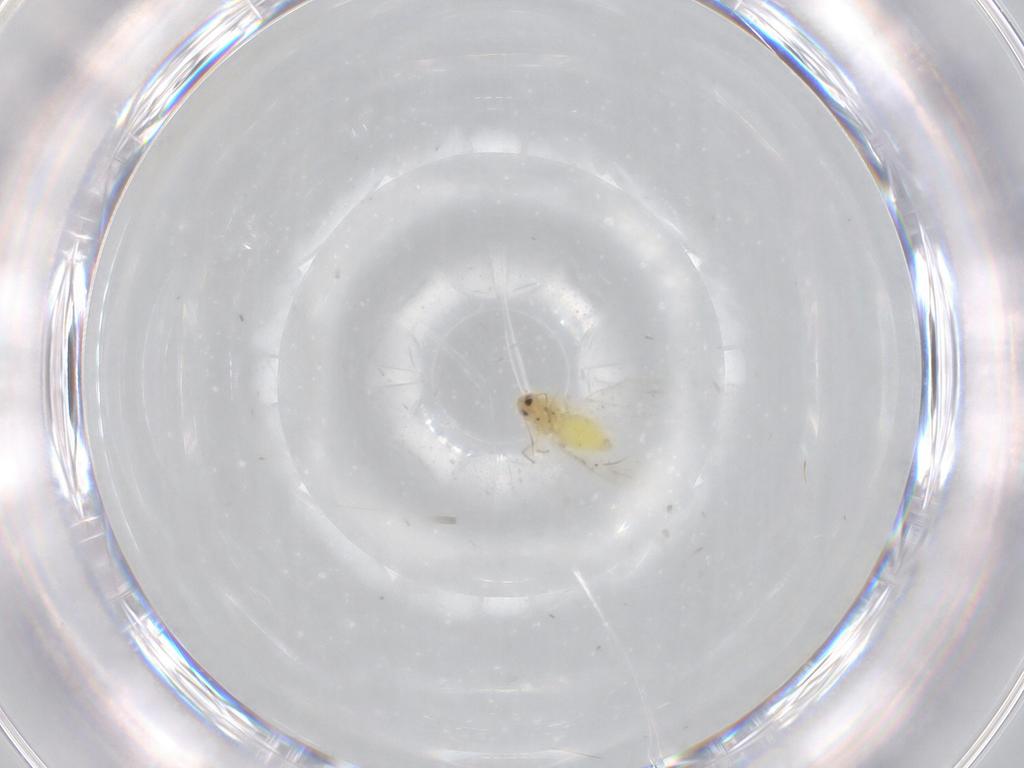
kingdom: Animalia
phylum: Arthropoda
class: Insecta
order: Hemiptera
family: Aleyrodidae
